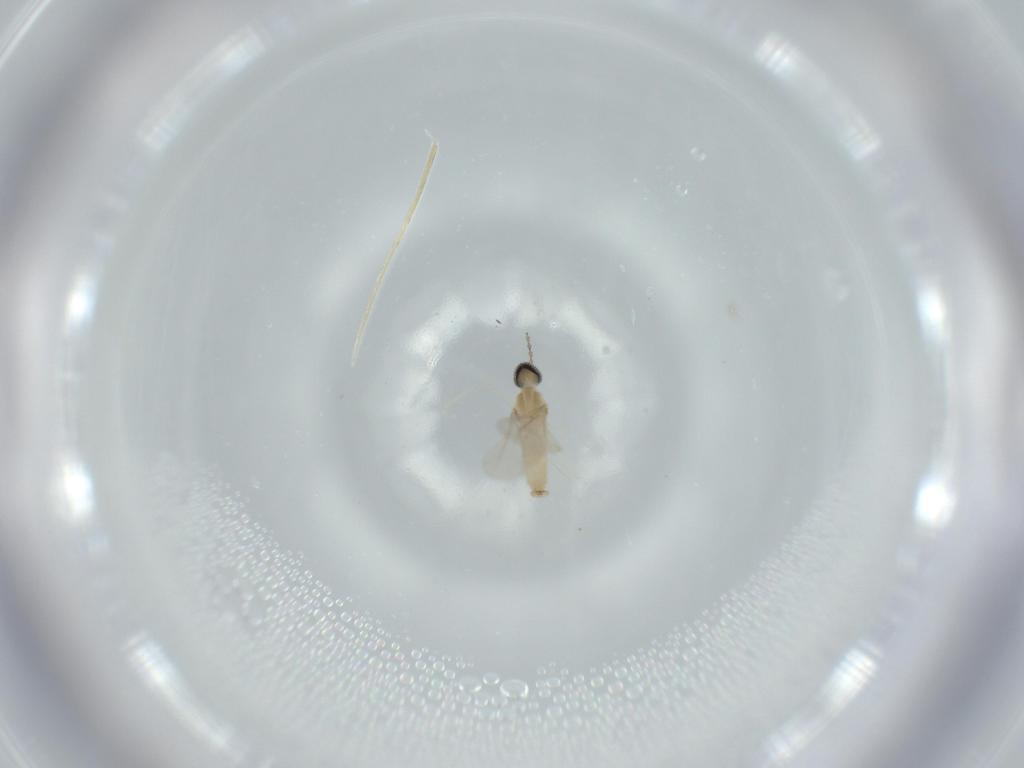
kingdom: Animalia
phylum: Arthropoda
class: Insecta
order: Diptera
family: Cecidomyiidae
